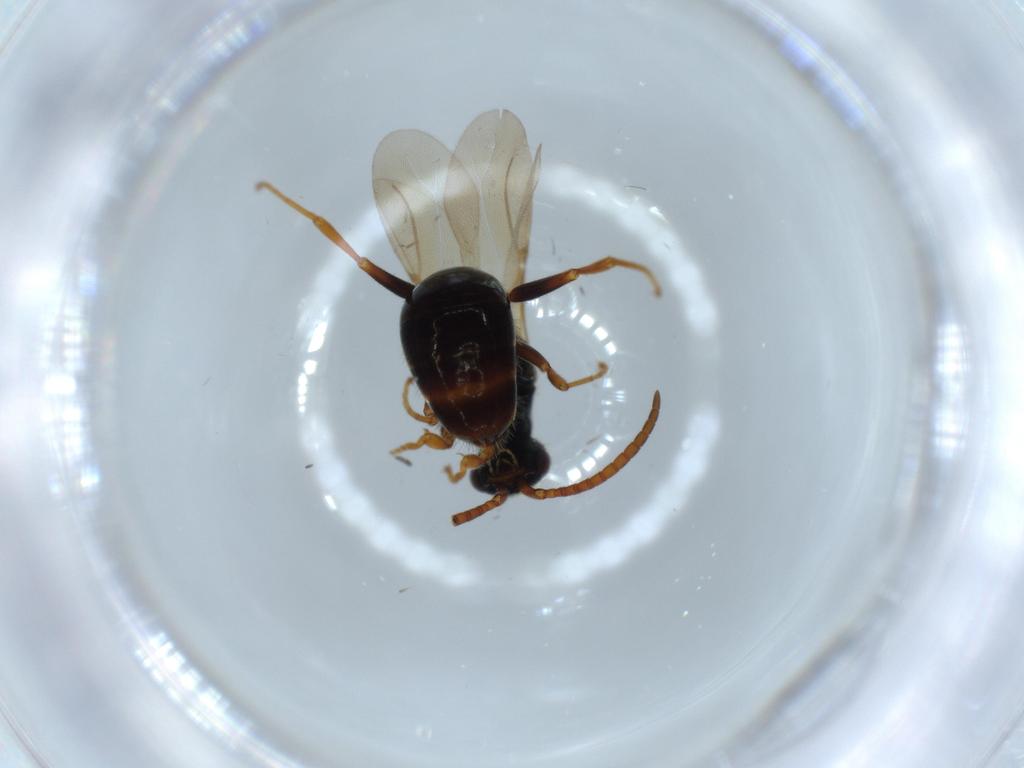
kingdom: Animalia
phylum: Arthropoda
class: Insecta
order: Hymenoptera
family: Bethylidae
